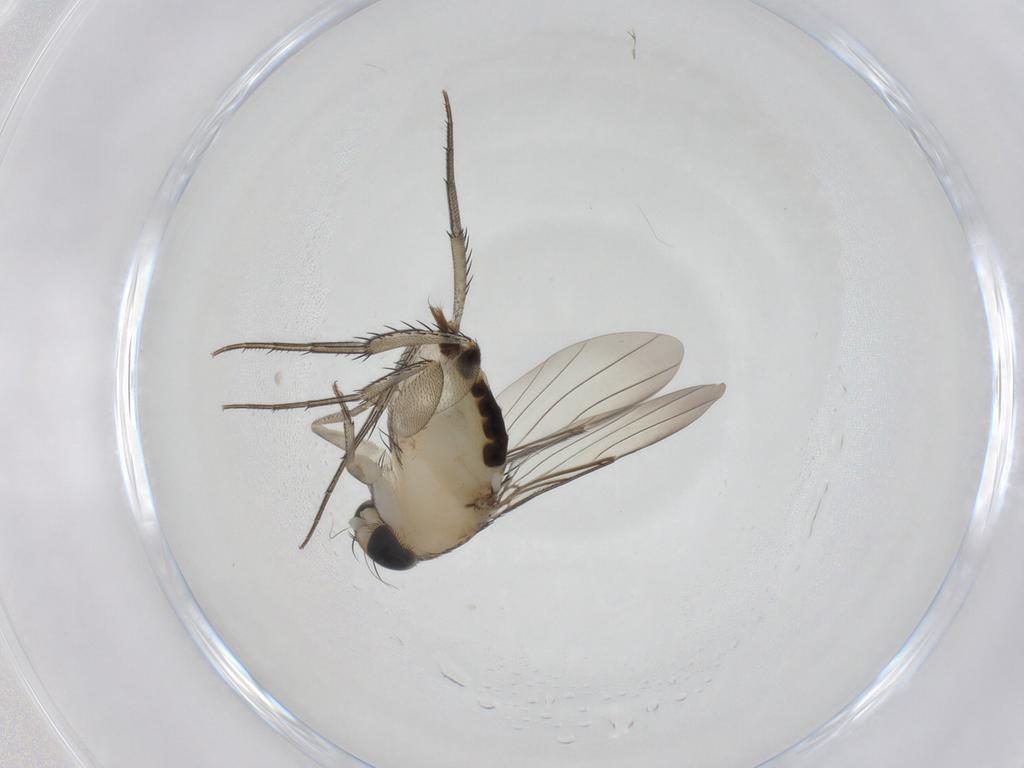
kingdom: Animalia
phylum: Arthropoda
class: Insecta
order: Diptera
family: Phoridae
